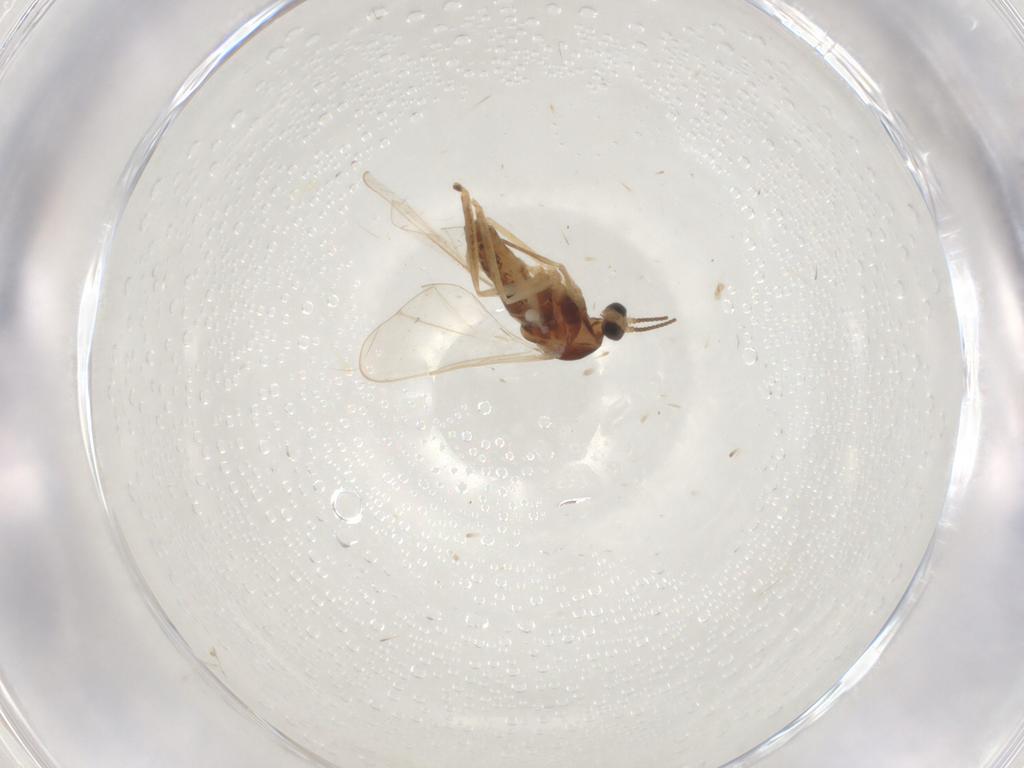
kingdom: Animalia
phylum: Arthropoda
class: Insecta
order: Diptera
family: Cecidomyiidae
